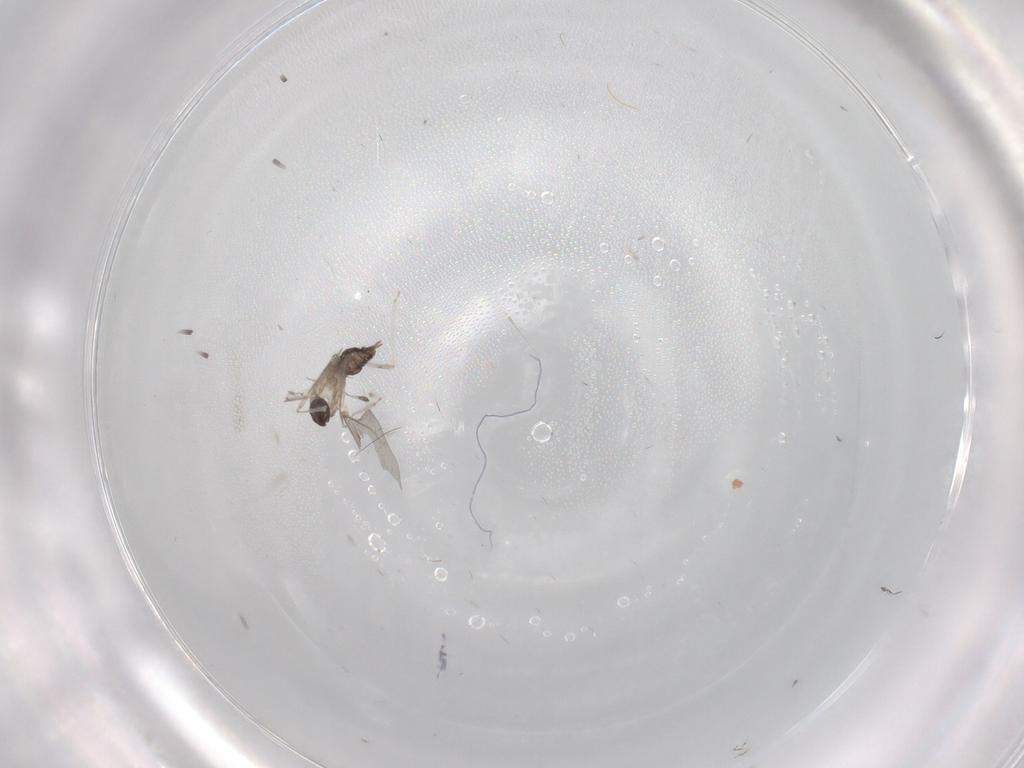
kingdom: Animalia
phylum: Arthropoda
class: Insecta
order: Diptera
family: Cecidomyiidae
